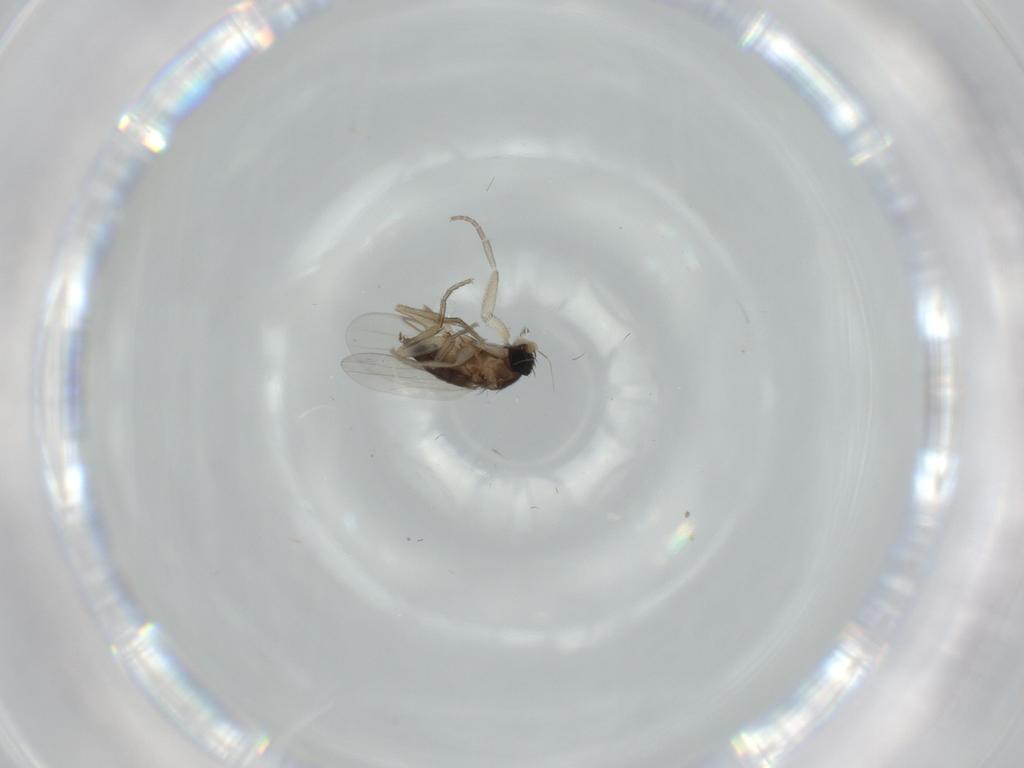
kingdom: Animalia
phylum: Arthropoda
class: Insecta
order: Diptera
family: Phoridae
